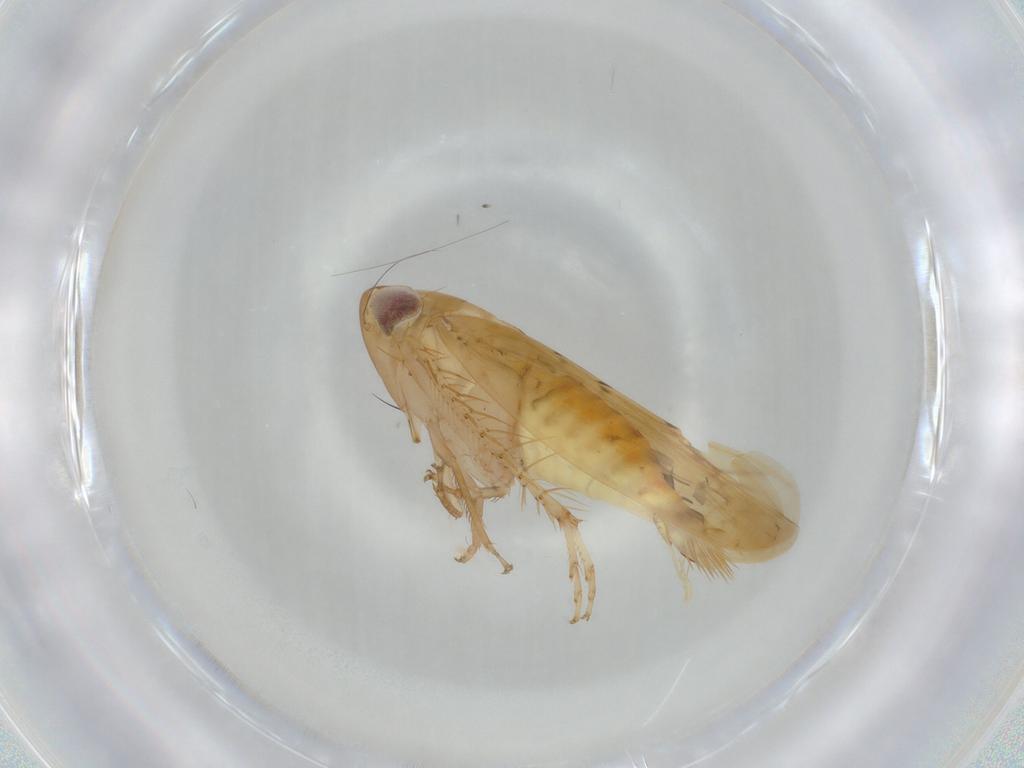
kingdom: Animalia
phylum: Arthropoda
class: Insecta
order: Hemiptera
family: Cicadellidae
